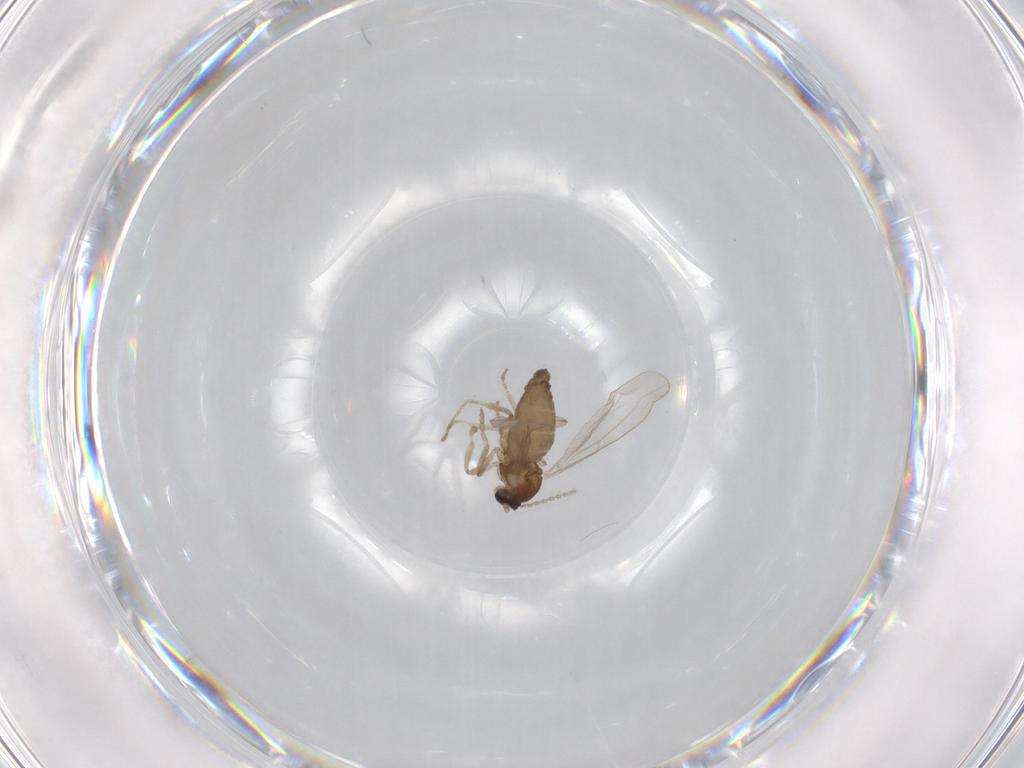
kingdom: Animalia
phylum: Arthropoda
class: Insecta
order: Diptera
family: Cecidomyiidae
